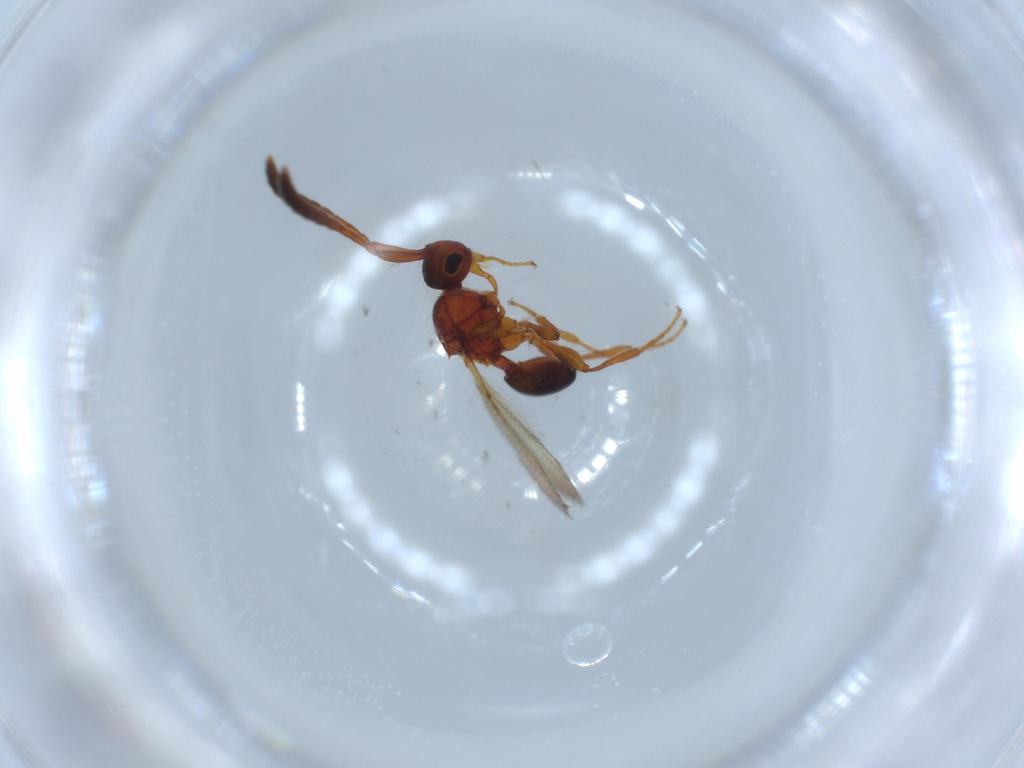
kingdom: Animalia
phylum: Arthropoda
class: Insecta
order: Hymenoptera
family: Diapriidae
